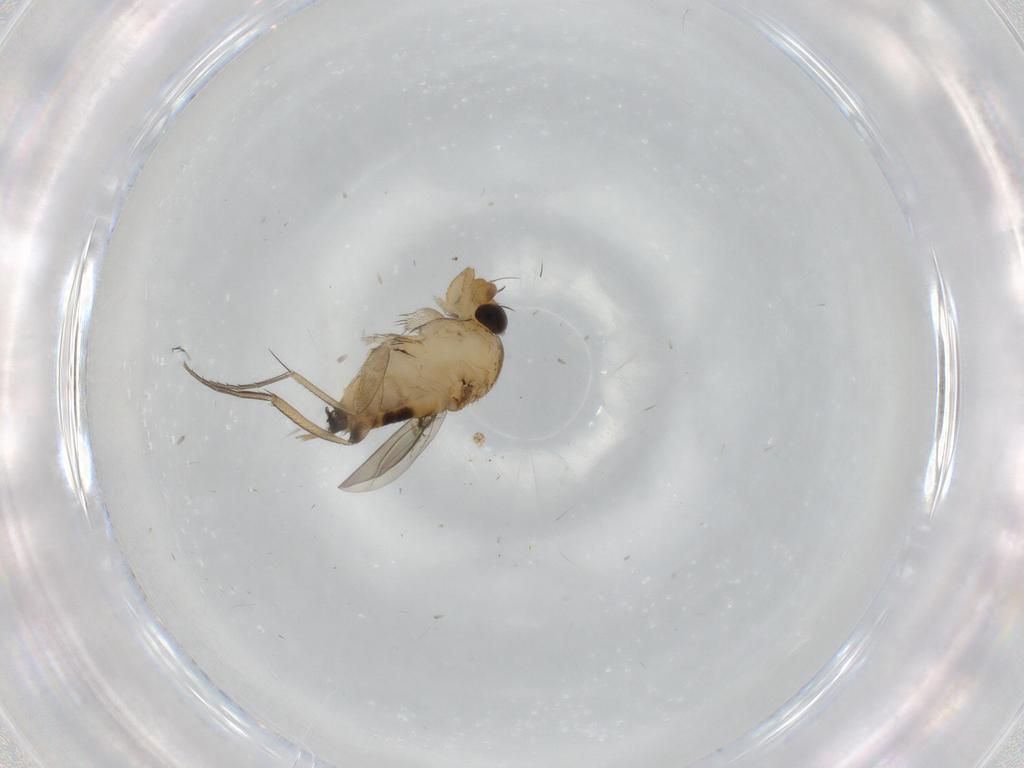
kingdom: Animalia
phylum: Arthropoda
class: Insecta
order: Diptera
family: Phoridae
